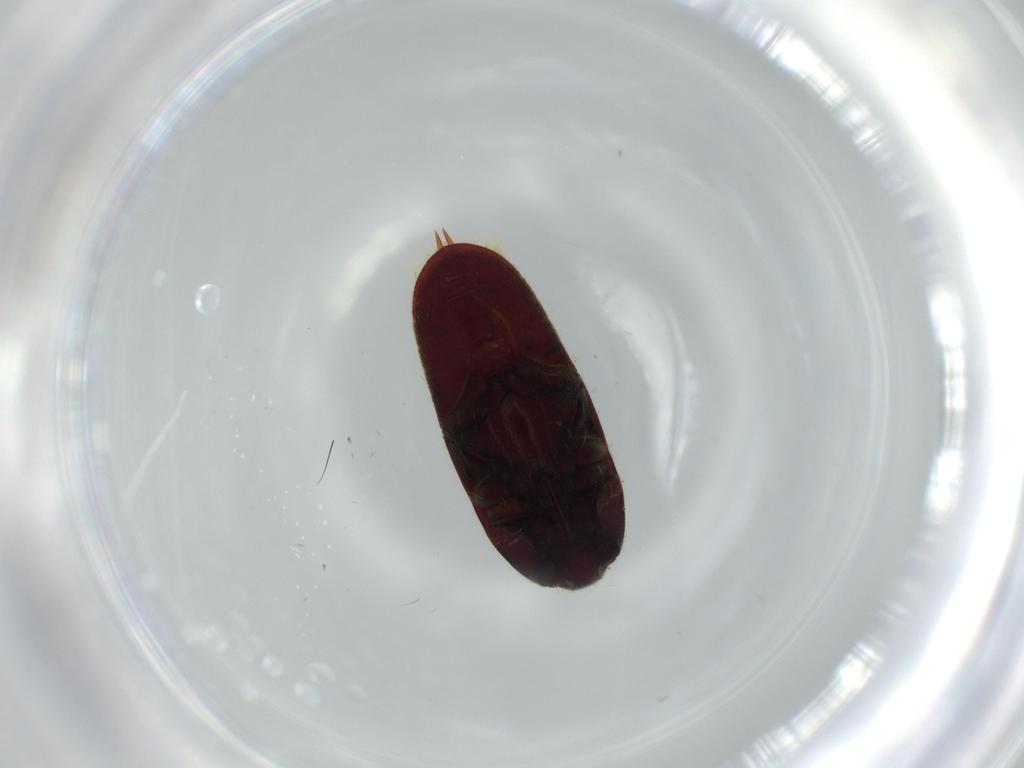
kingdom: Animalia
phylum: Arthropoda
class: Insecta
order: Coleoptera
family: Throscidae
